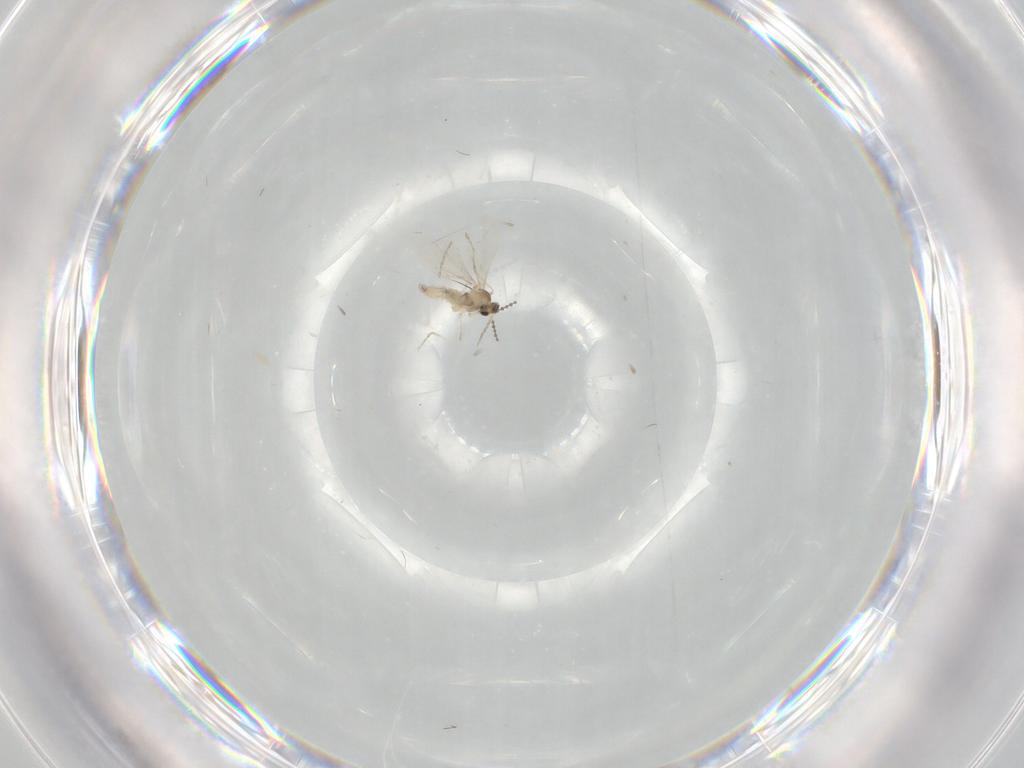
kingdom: Animalia
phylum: Arthropoda
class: Insecta
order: Diptera
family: Cecidomyiidae
